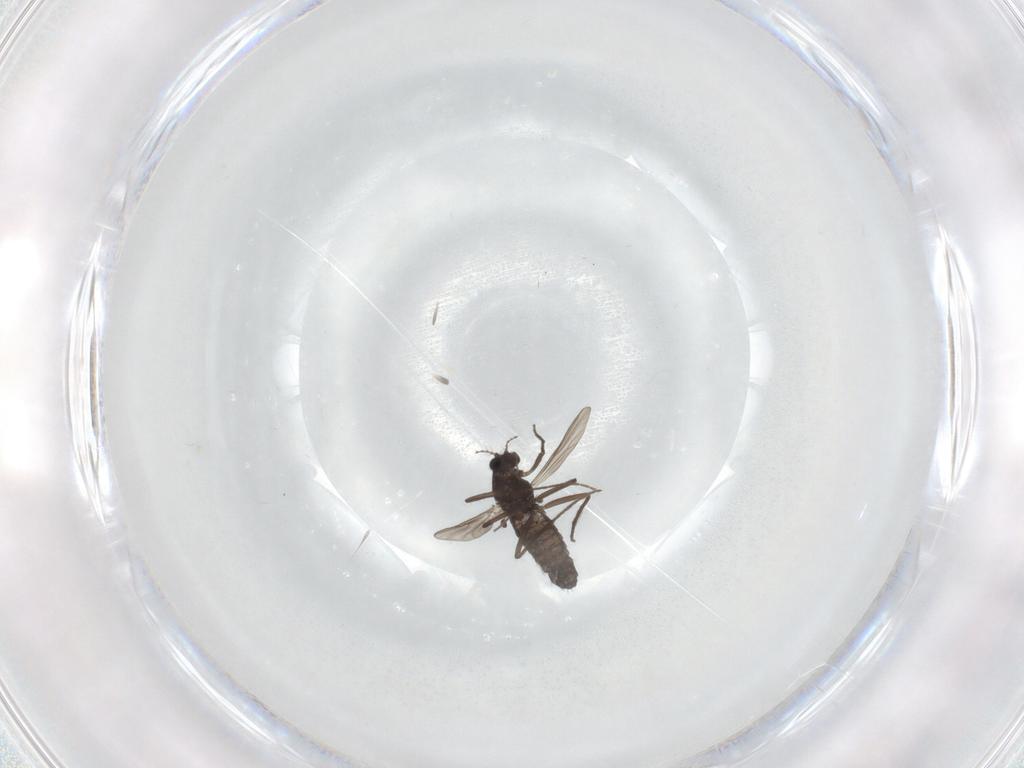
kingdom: Animalia
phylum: Arthropoda
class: Insecta
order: Diptera
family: Chironomidae
